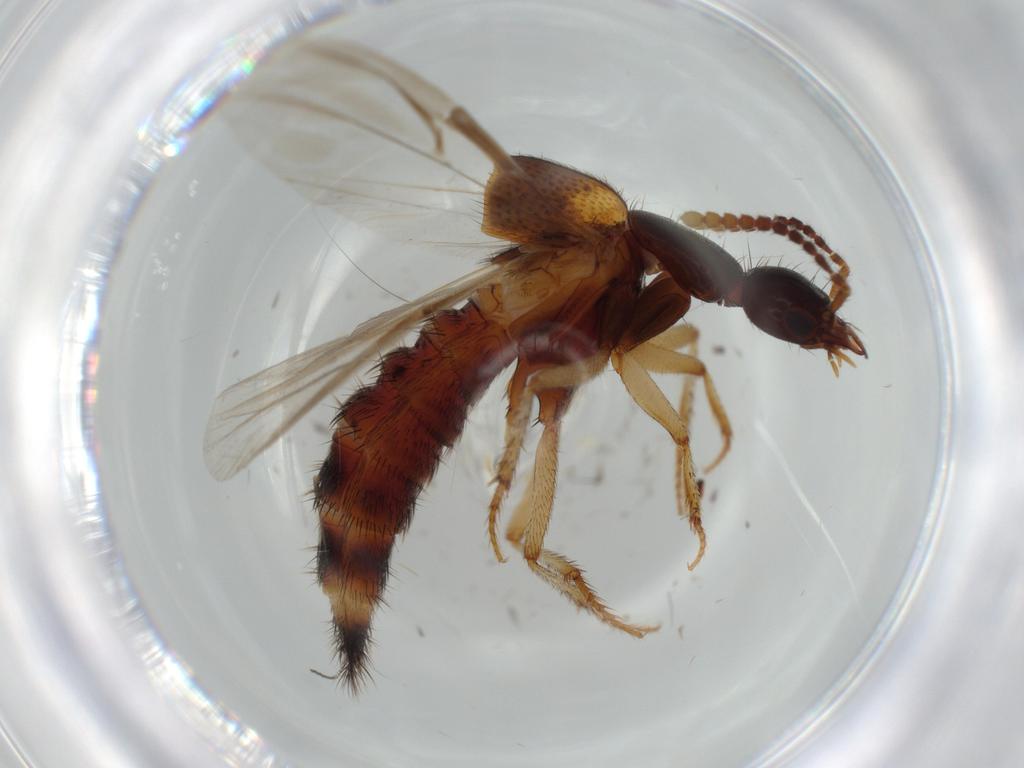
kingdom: Animalia
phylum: Arthropoda
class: Insecta
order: Coleoptera
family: Staphylinidae
